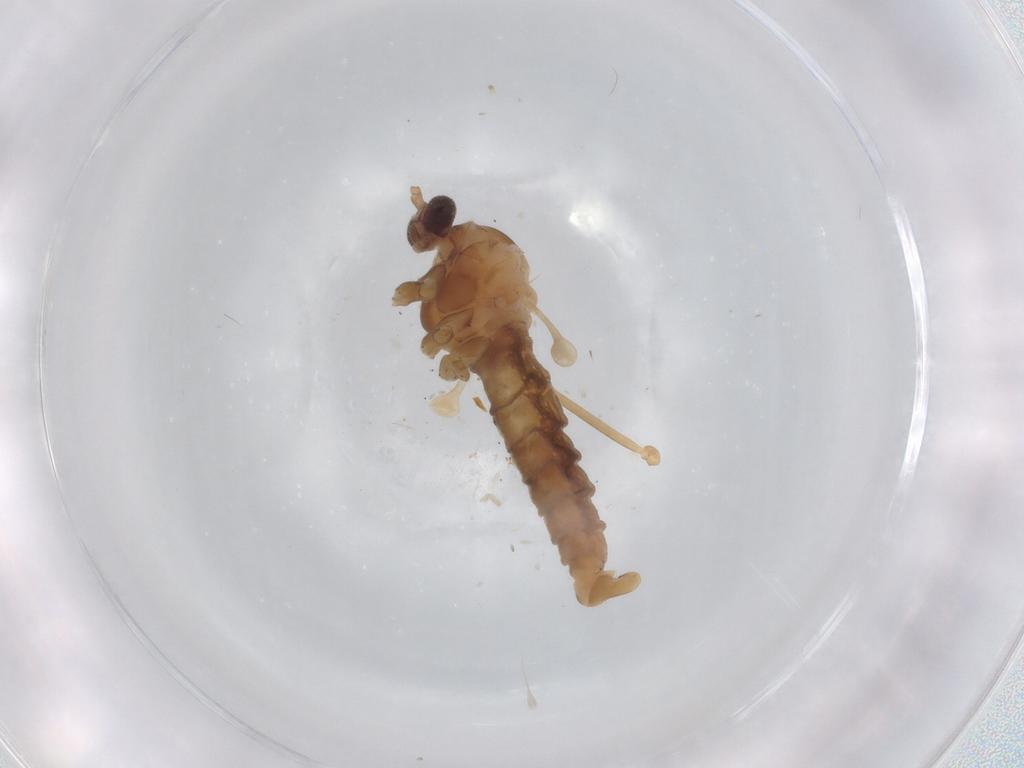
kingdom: Animalia
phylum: Arthropoda
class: Insecta
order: Diptera
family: Cecidomyiidae
